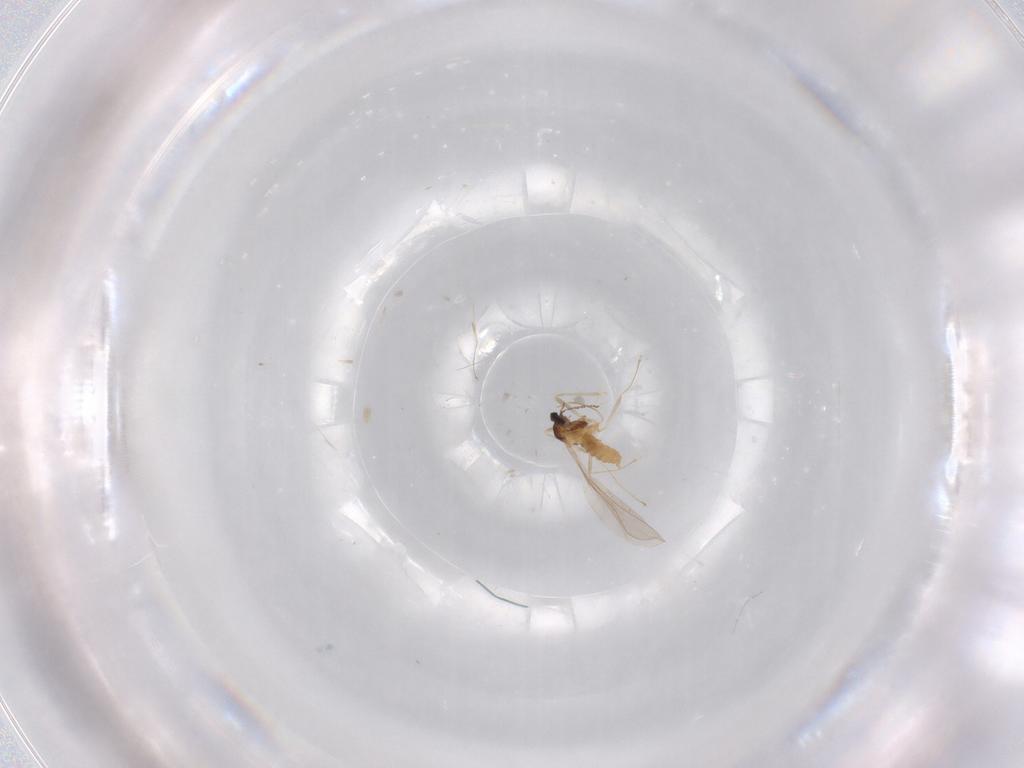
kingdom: Animalia
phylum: Arthropoda
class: Insecta
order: Diptera
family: Cecidomyiidae
